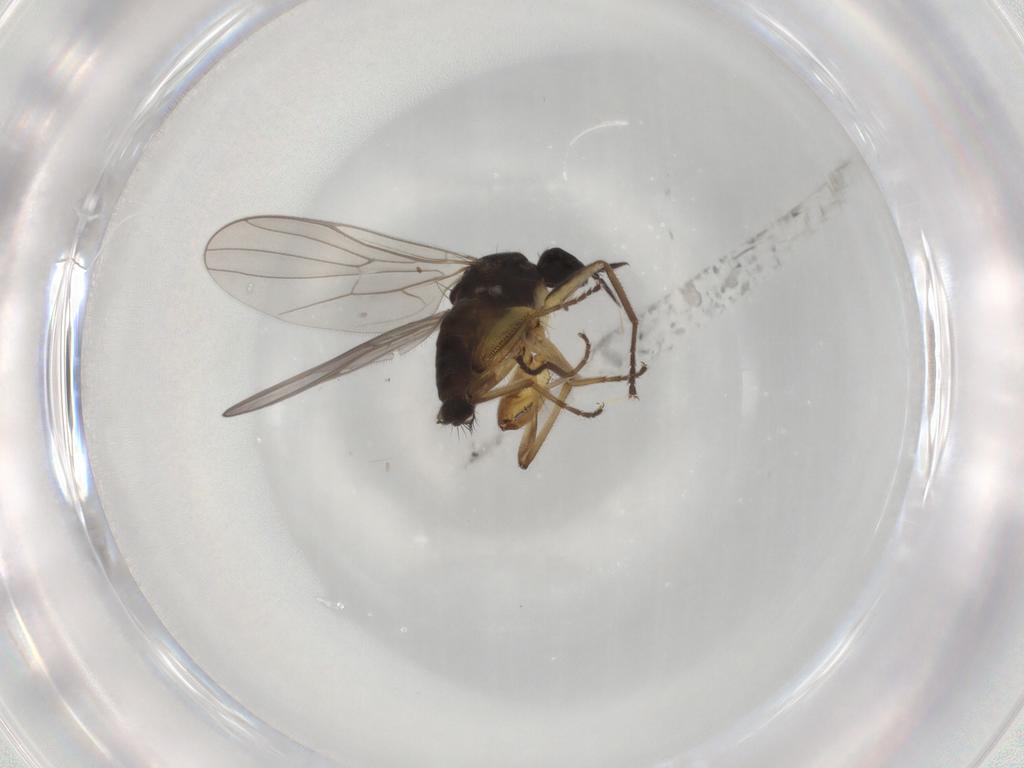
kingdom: Animalia
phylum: Arthropoda
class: Insecta
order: Diptera
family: Hybotidae
